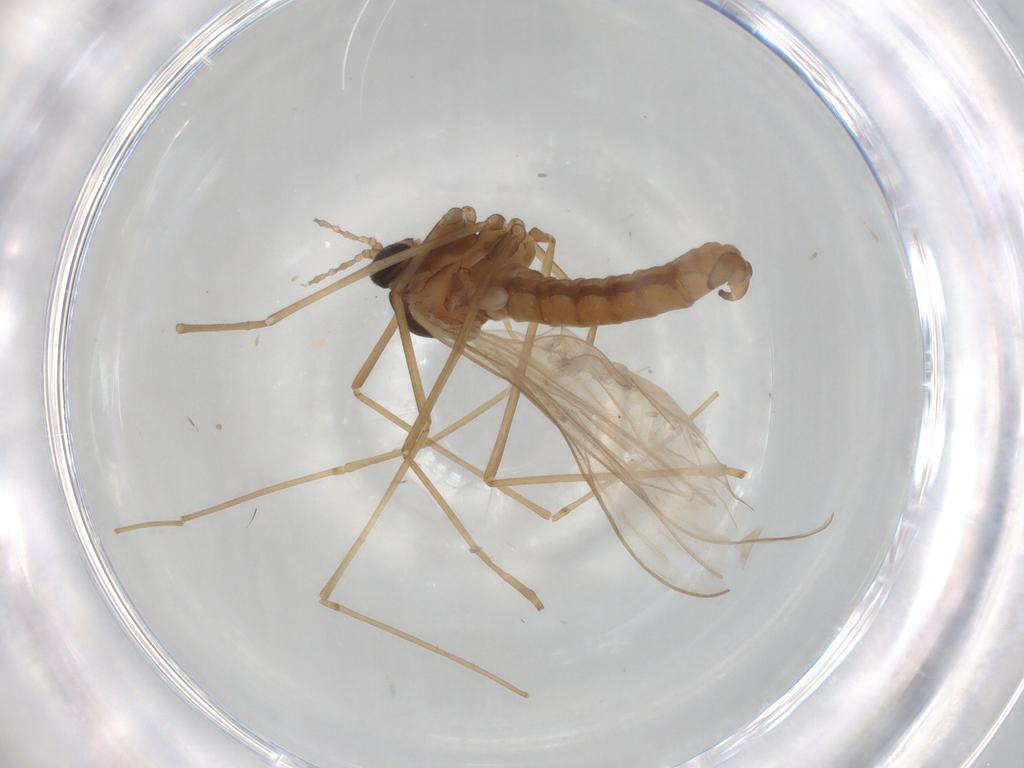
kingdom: Animalia
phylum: Arthropoda
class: Insecta
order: Diptera
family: Cecidomyiidae
